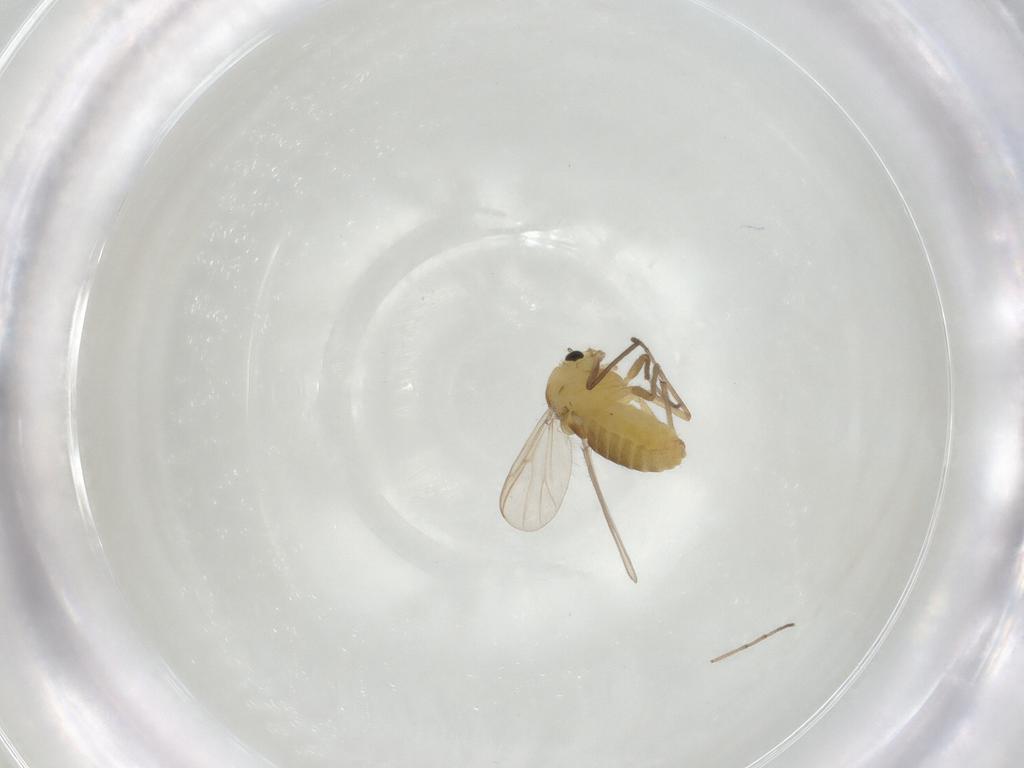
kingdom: Animalia
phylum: Arthropoda
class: Insecta
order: Diptera
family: Chironomidae
